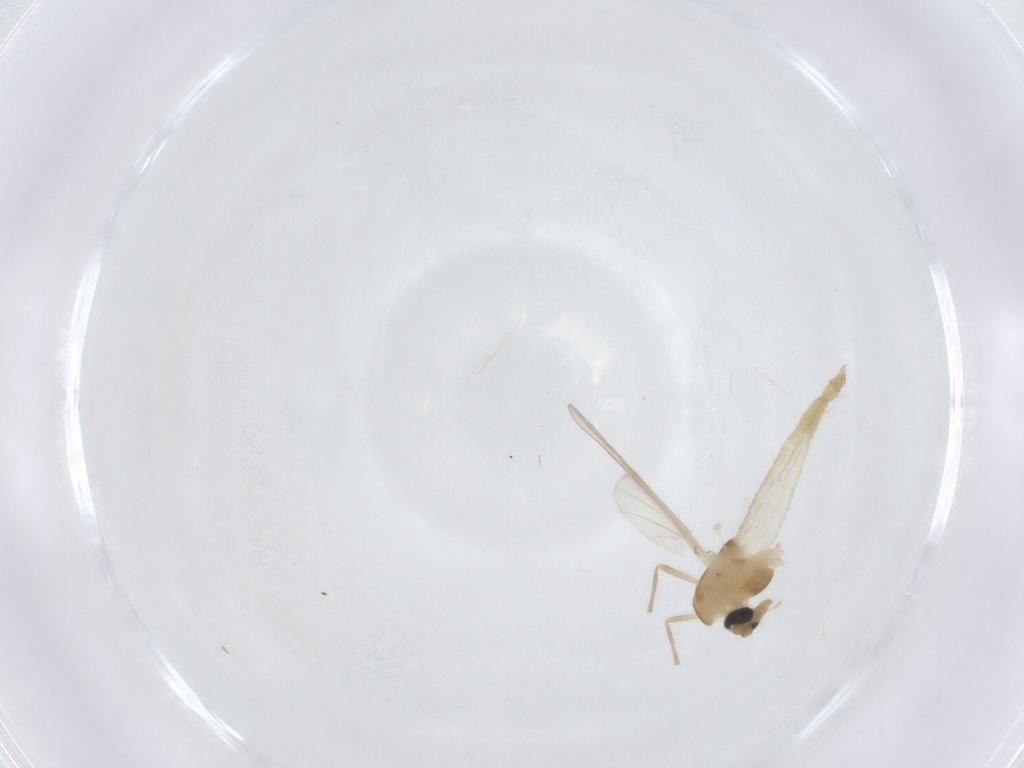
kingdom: Animalia
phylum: Arthropoda
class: Insecta
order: Diptera
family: Chironomidae
